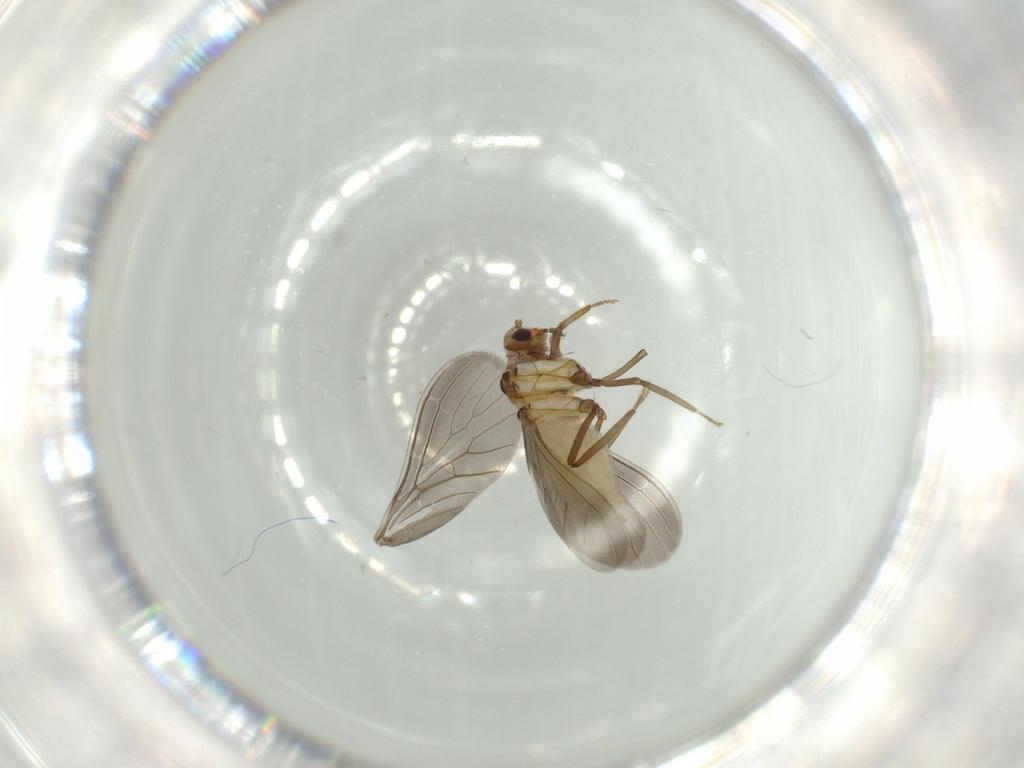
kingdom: Animalia
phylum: Arthropoda
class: Insecta
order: Neuroptera
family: Coniopterygidae
